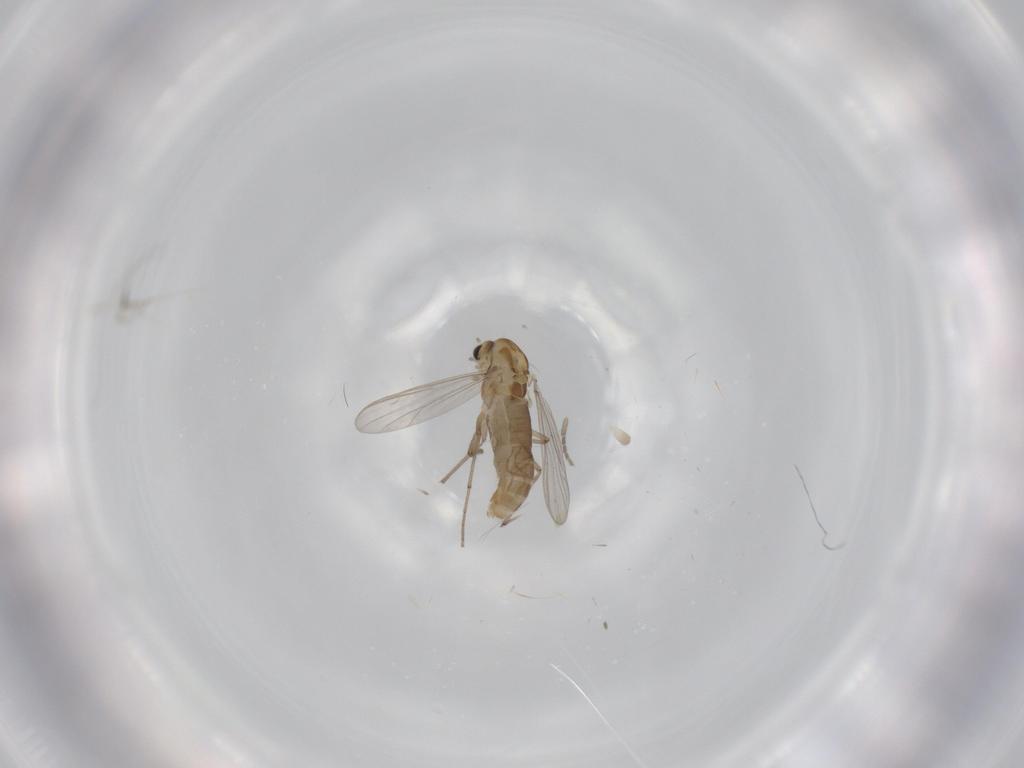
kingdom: Animalia
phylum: Arthropoda
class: Insecta
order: Diptera
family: Chironomidae
